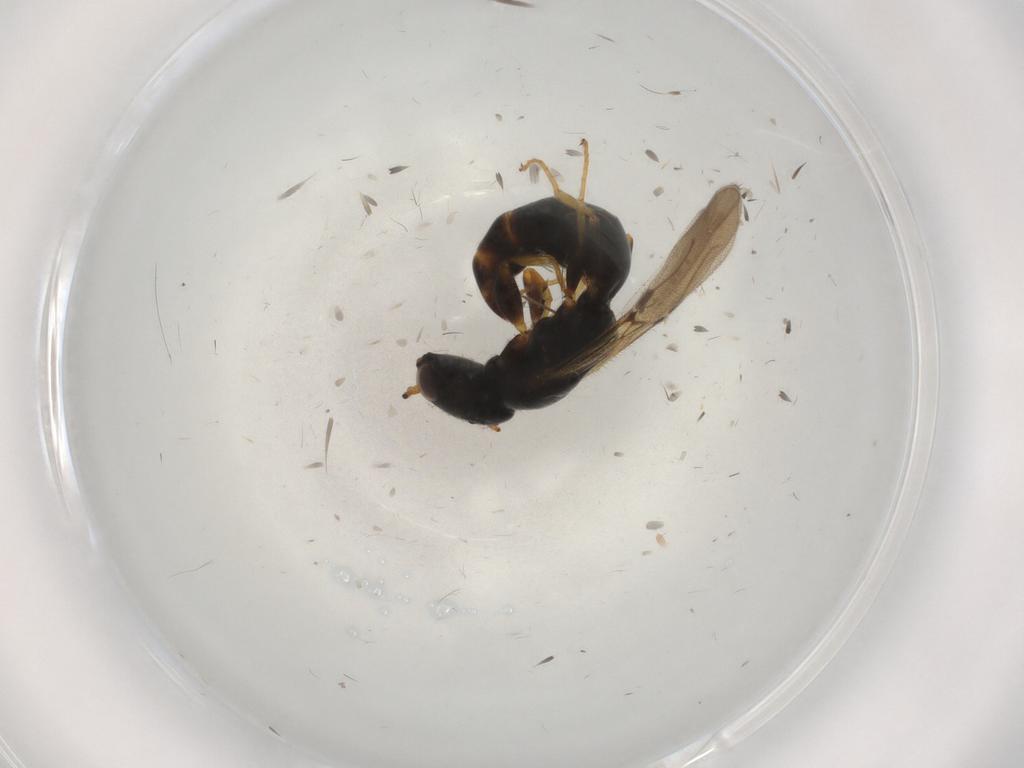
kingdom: Animalia
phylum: Arthropoda
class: Insecta
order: Hymenoptera
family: Bethylidae
